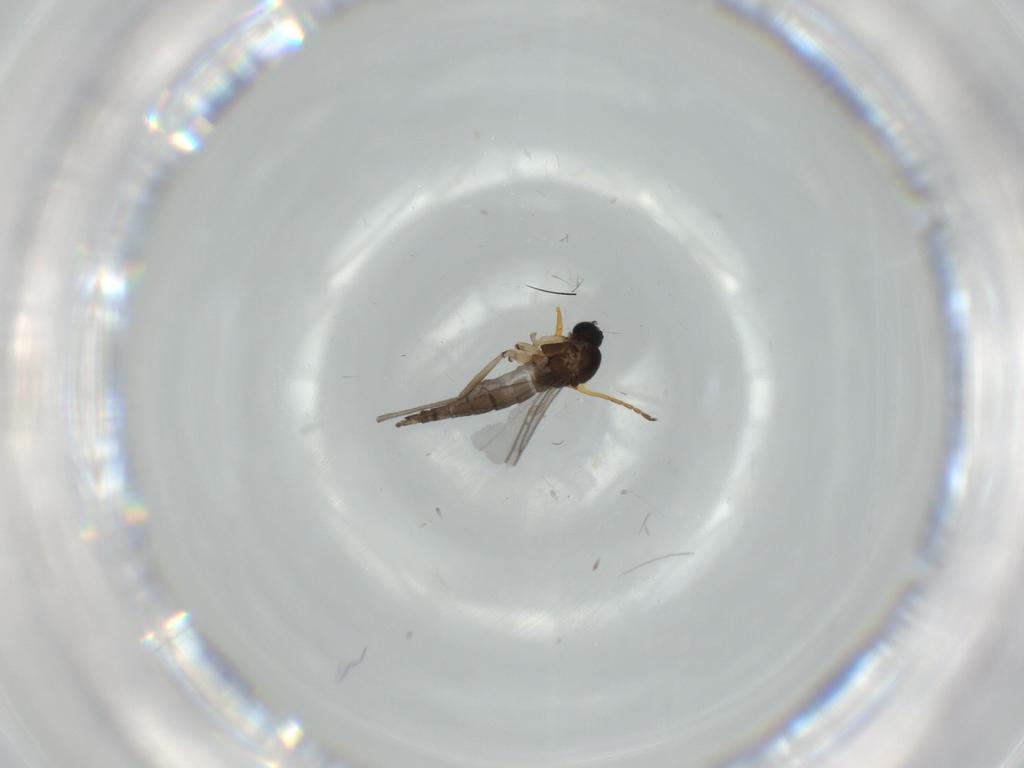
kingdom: Animalia
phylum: Arthropoda
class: Insecta
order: Diptera
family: Sciaridae
